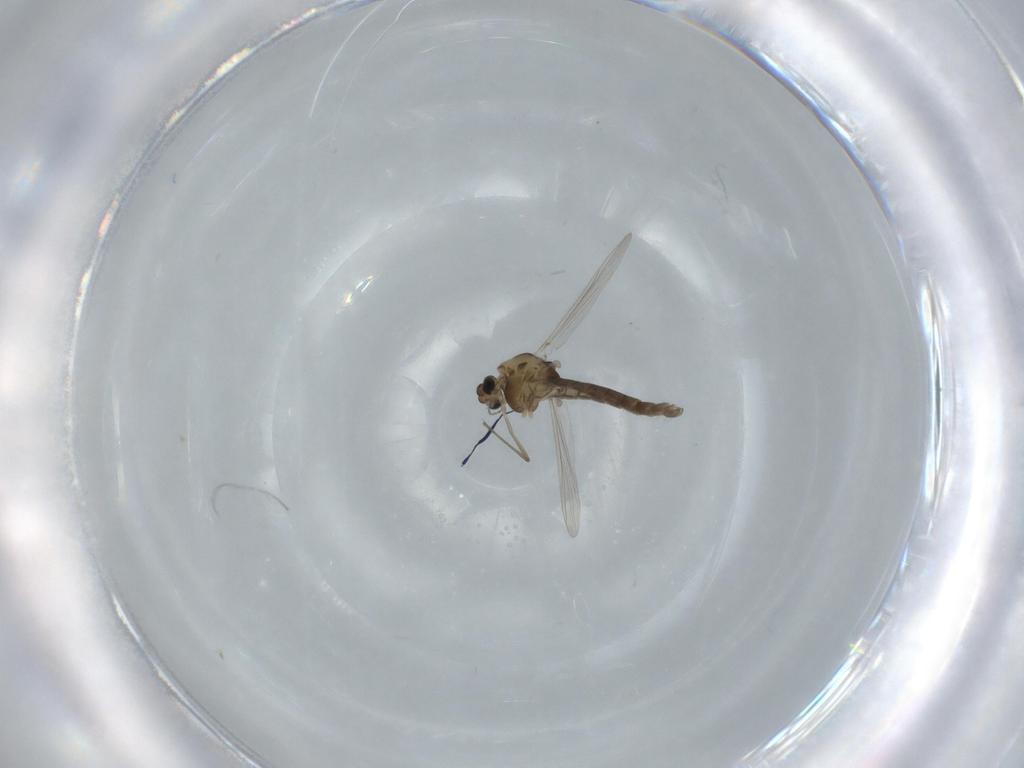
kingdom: Animalia
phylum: Arthropoda
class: Insecta
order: Diptera
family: Chironomidae
